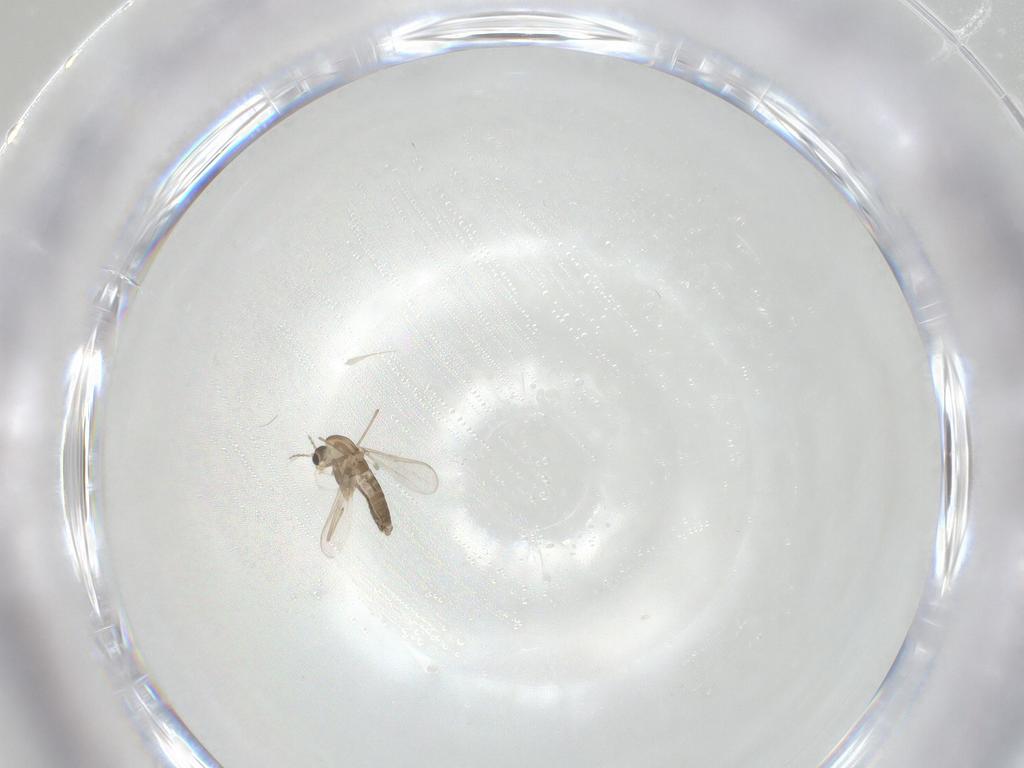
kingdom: Animalia
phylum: Arthropoda
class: Insecta
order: Diptera
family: Chironomidae
